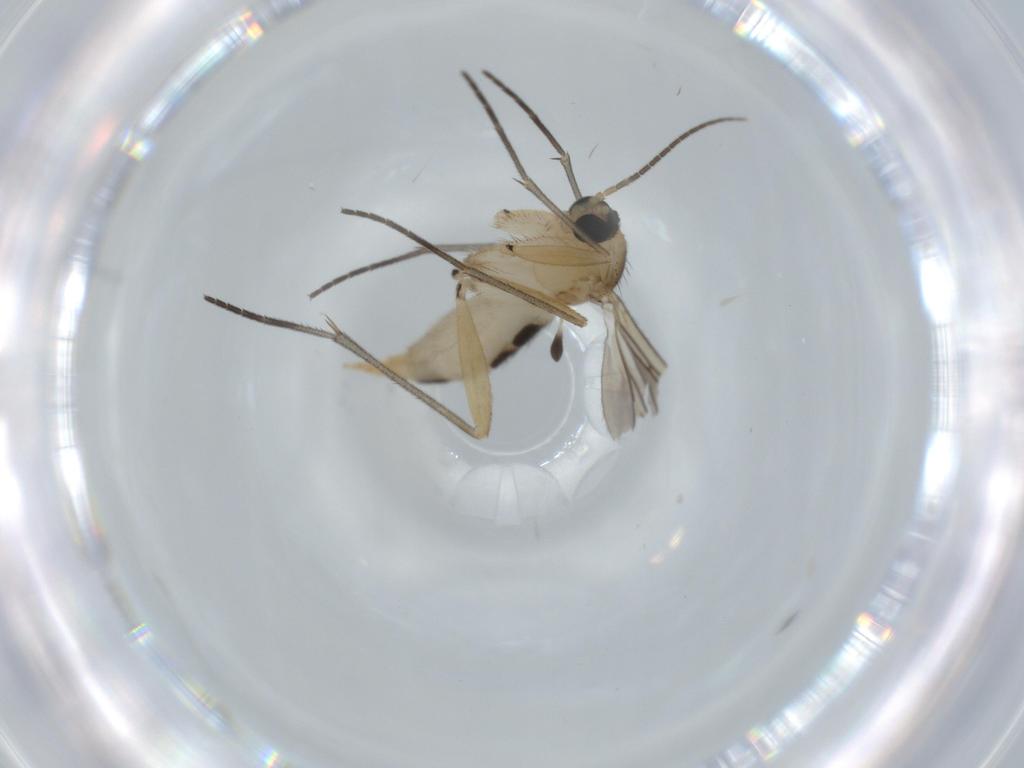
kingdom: Animalia
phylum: Arthropoda
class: Insecta
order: Diptera
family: Sciaridae
